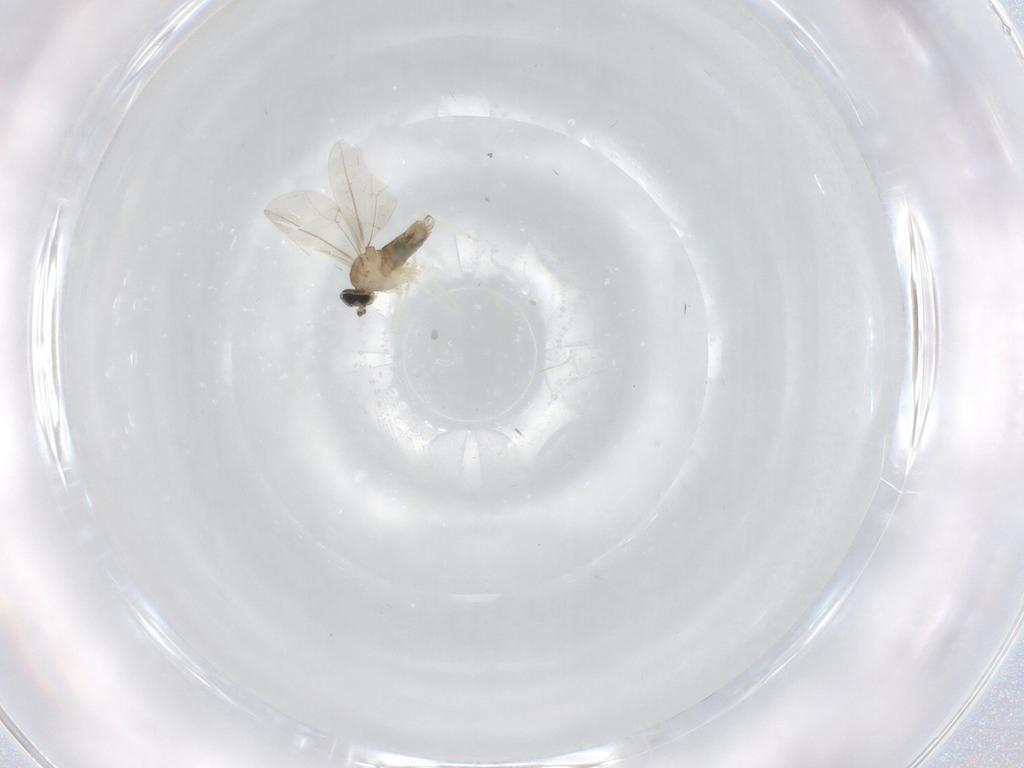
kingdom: Animalia
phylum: Arthropoda
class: Insecta
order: Diptera
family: Cecidomyiidae
